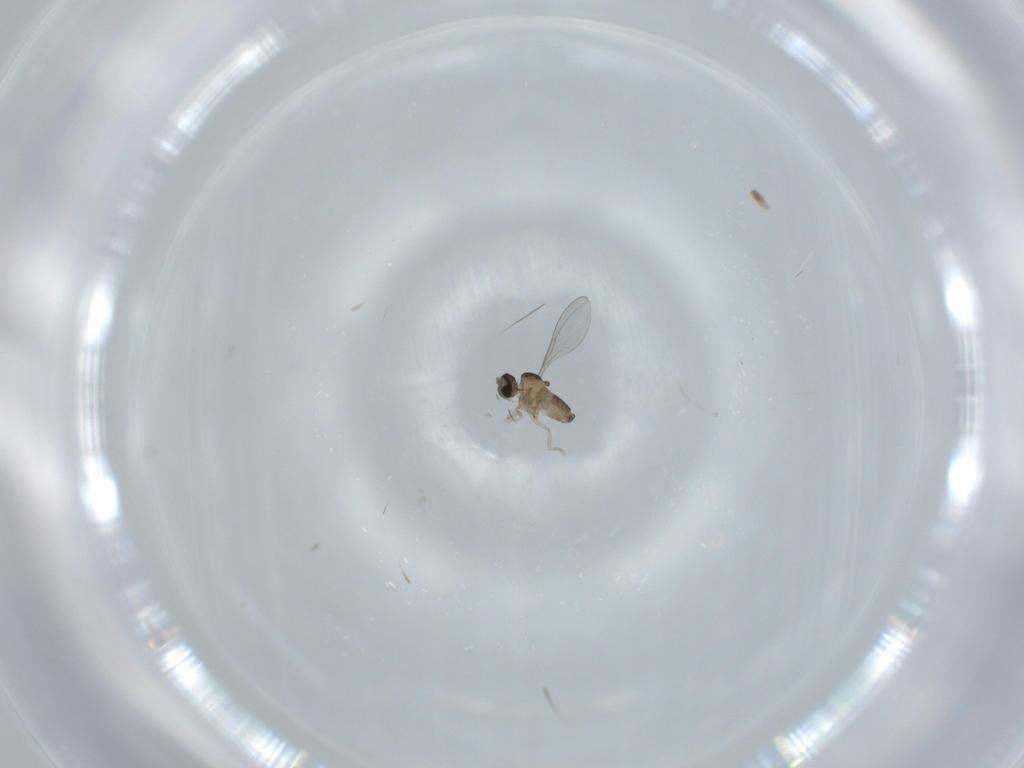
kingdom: Animalia
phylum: Arthropoda
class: Insecta
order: Diptera
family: Cecidomyiidae
